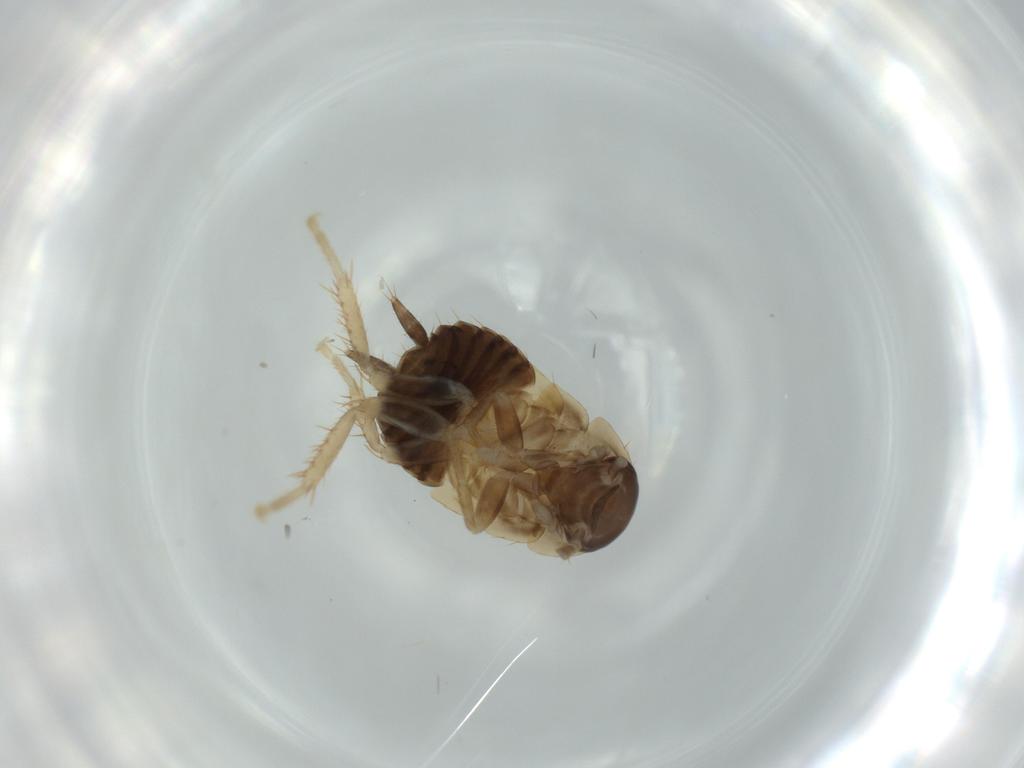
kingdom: Animalia
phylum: Arthropoda
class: Insecta
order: Blattodea
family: Ectobiidae
